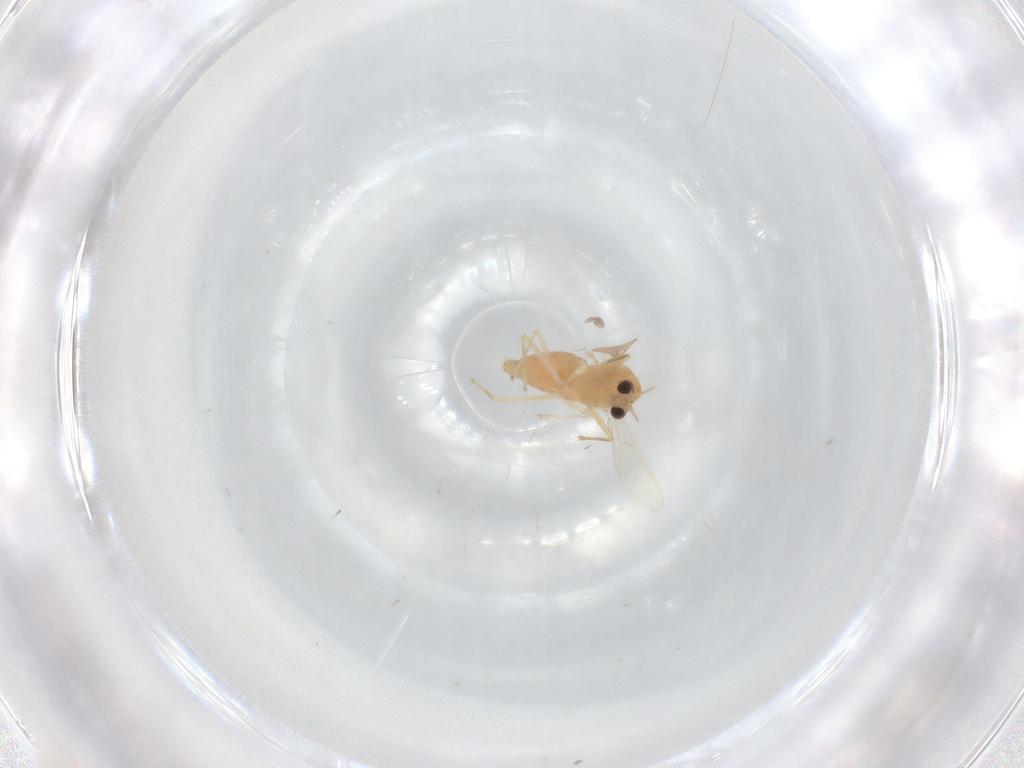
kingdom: Animalia
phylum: Arthropoda
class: Insecta
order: Diptera
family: Chironomidae
